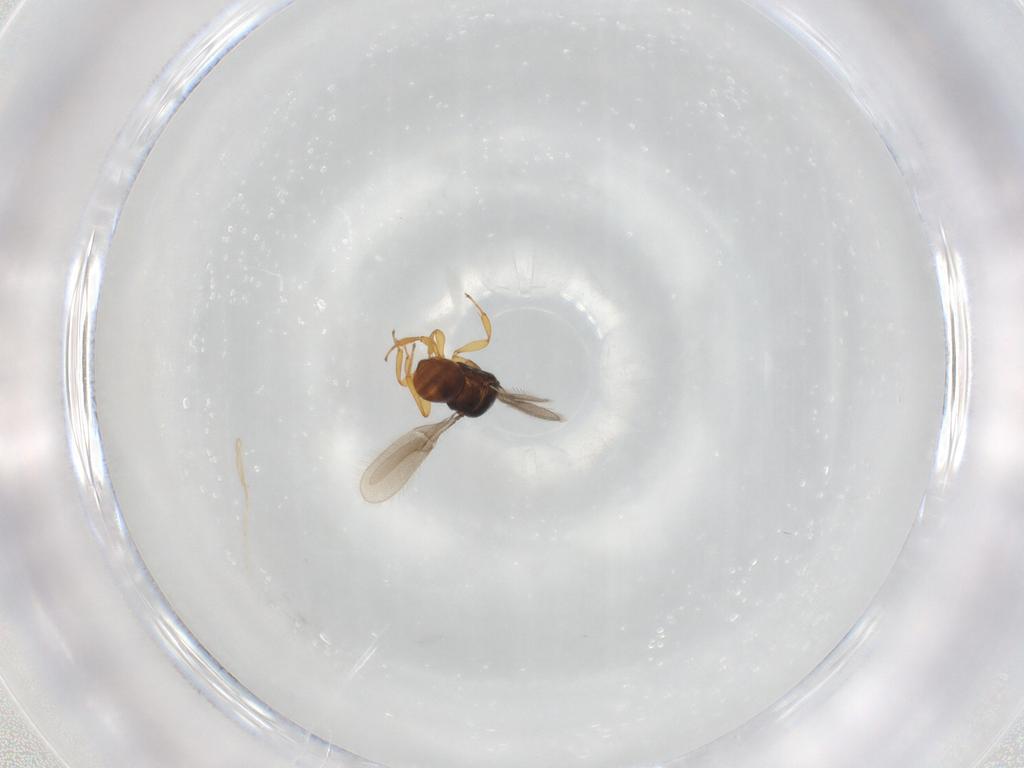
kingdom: Animalia
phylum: Arthropoda
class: Insecta
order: Hymenoptera
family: Scelionidae
